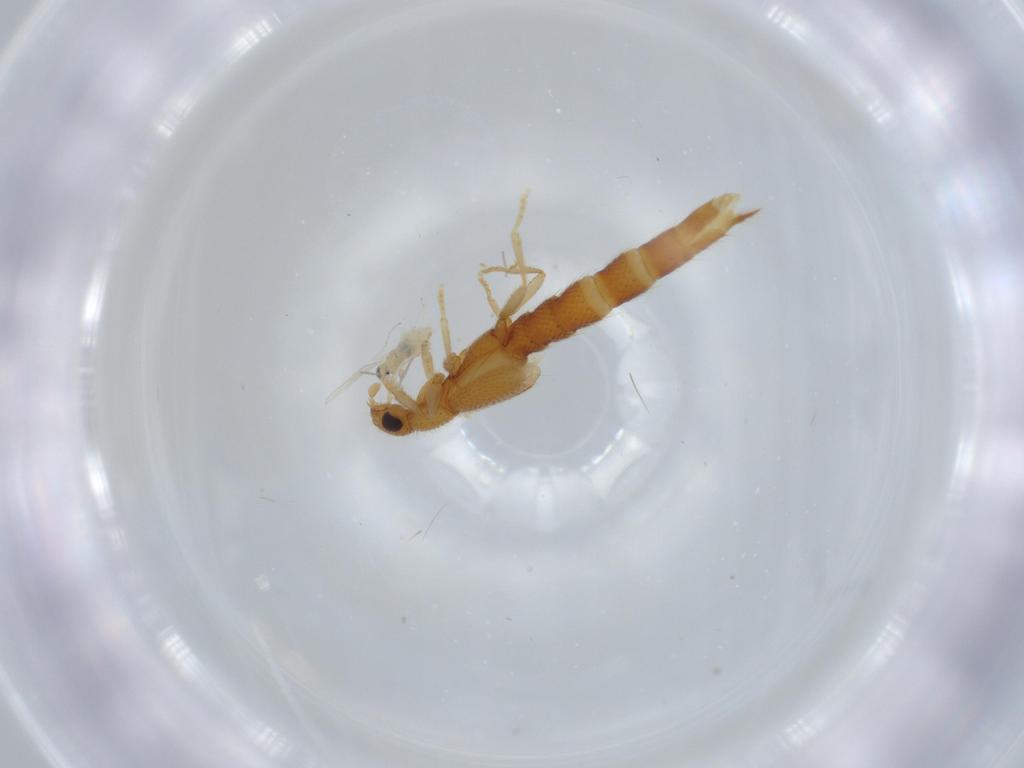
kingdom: Animalia
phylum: Arthropoda
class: Insecta
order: Coleoptera
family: Staphylinidae
